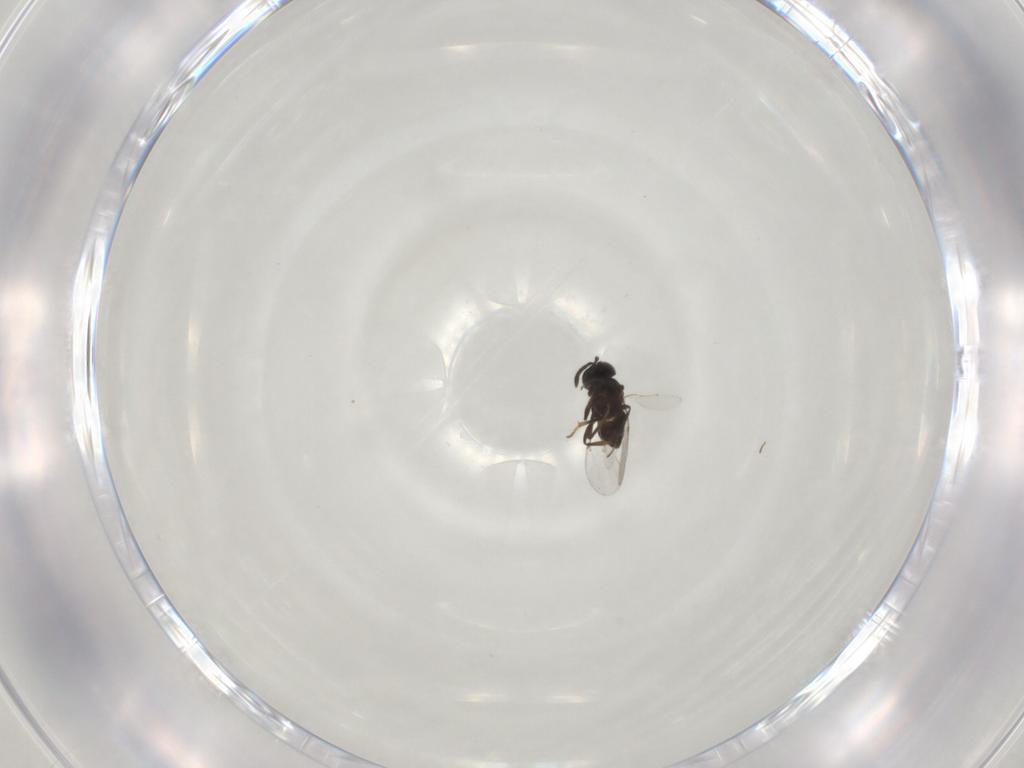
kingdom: Animalia
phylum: Arthropoda
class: Insecta
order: Hymenoptera
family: Encyrtidae
